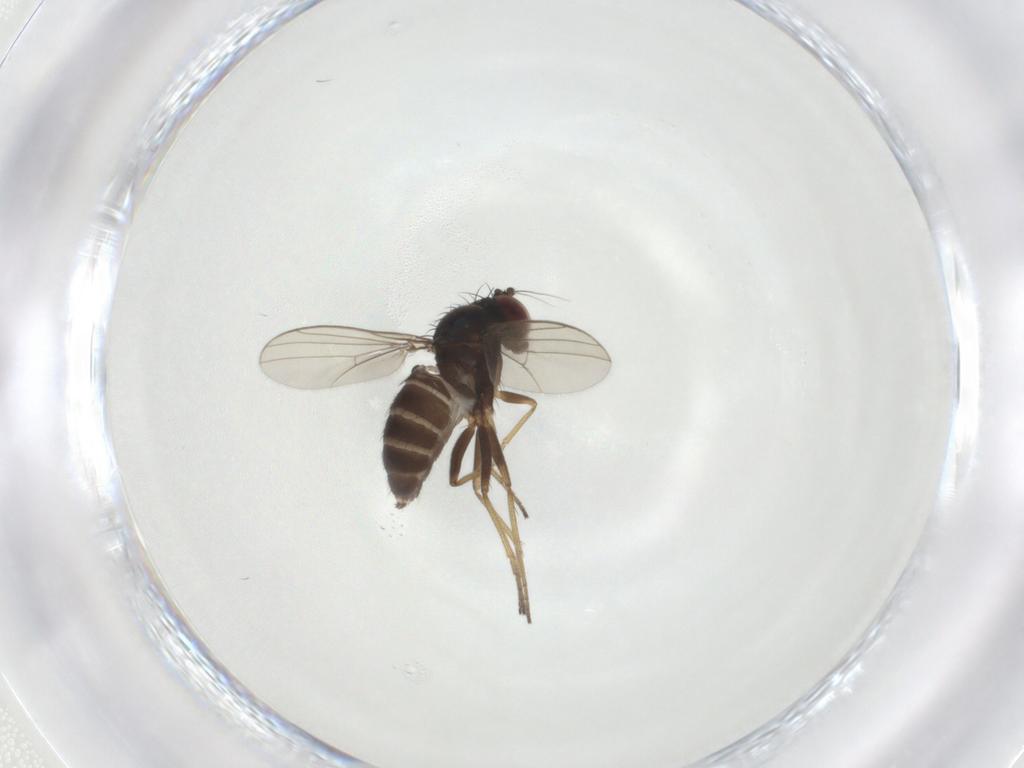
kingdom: Animalia
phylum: Arthropoda
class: Insecta
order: Diptera
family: Dolichopodidae
